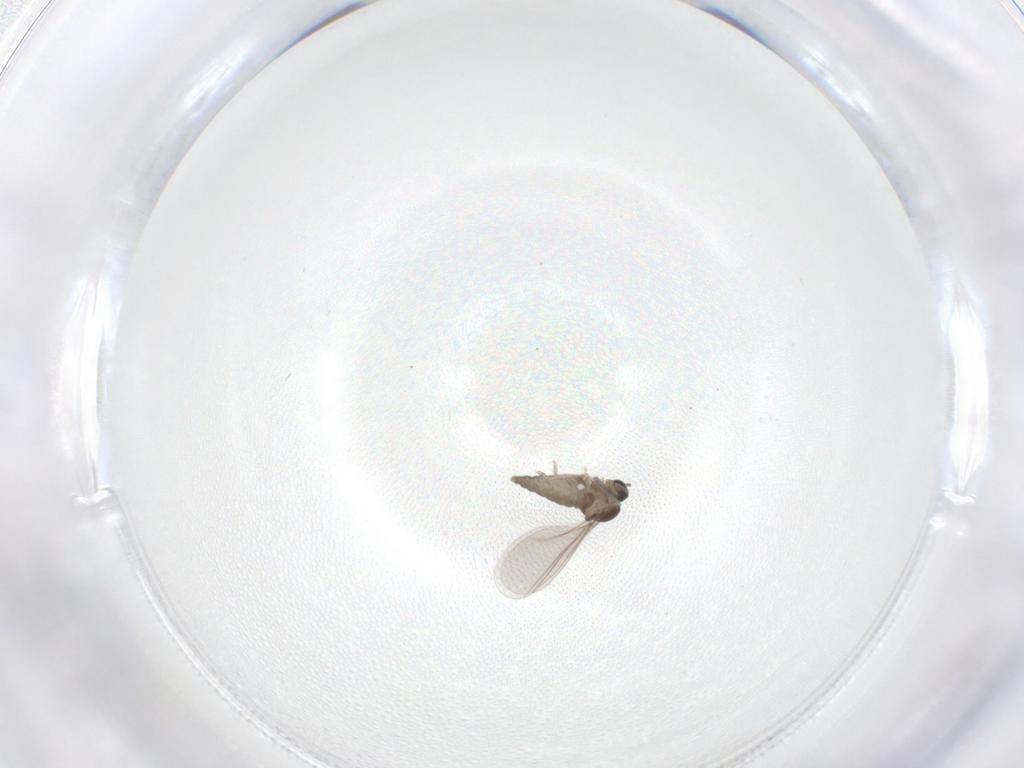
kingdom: Animalia
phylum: Arthropoda
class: Insecta
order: Diptera
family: Cecidomyiidae
